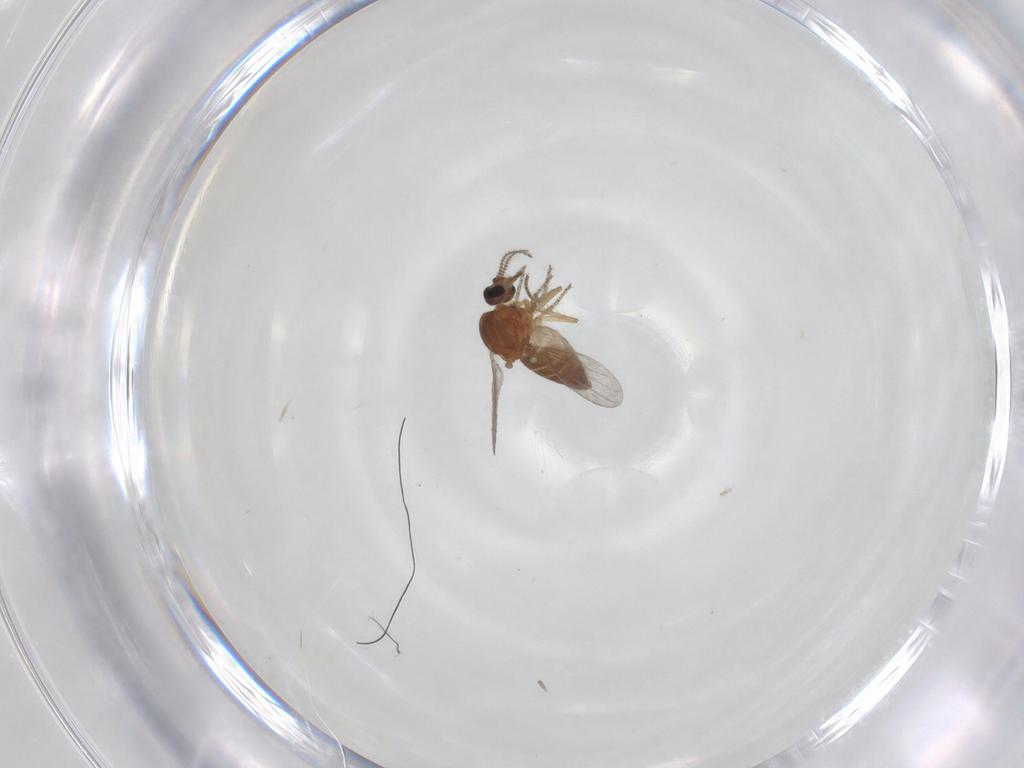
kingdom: Animalia
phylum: Arthropoda
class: Insecta
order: Diptera
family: Ceratopogonidae
